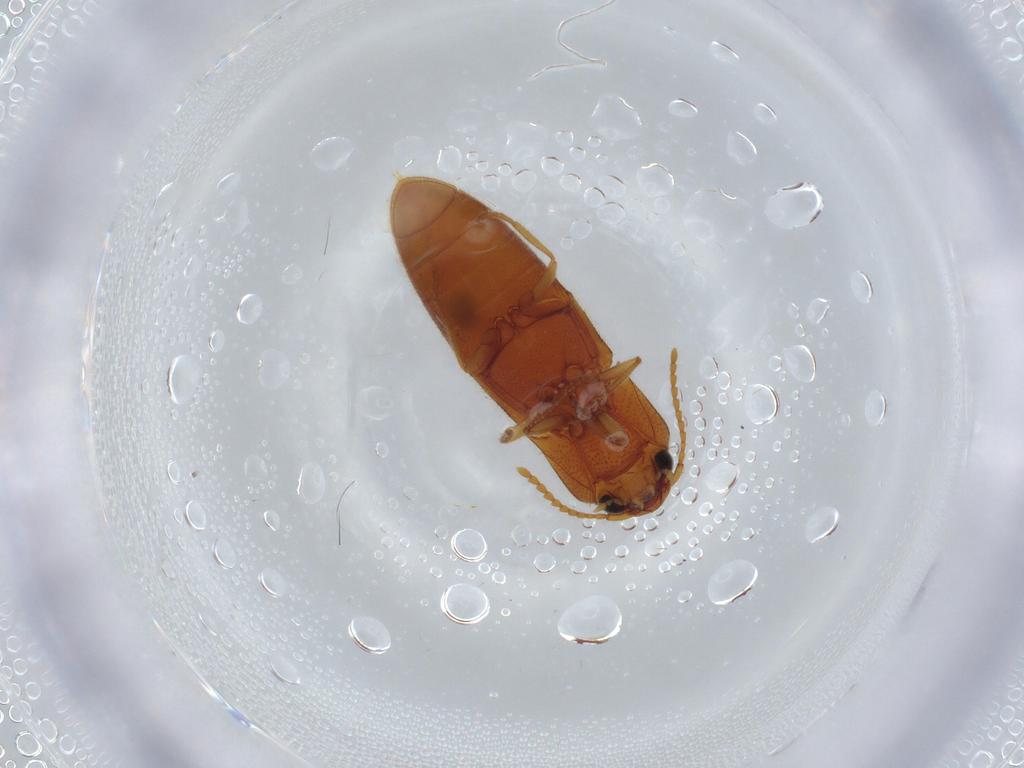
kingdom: Animalia
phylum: Arthropoda
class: Insecta
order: Coleoptera
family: Elateridae
